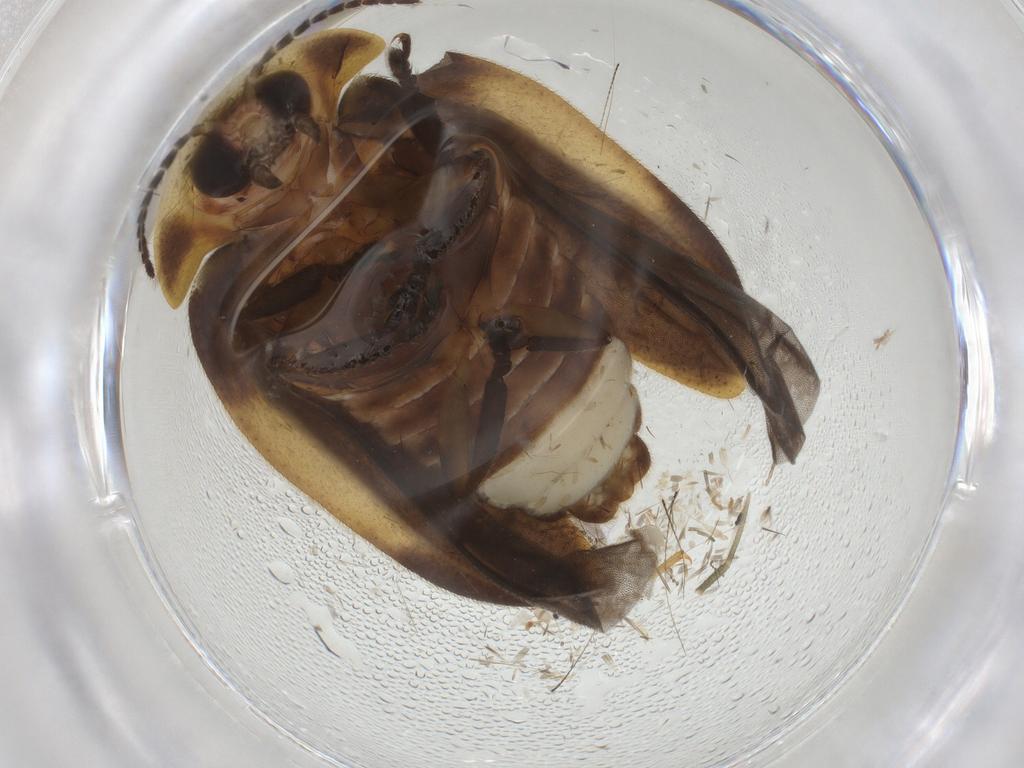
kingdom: Animalia
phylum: Arthropoda
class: Insecta
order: Coleoptera
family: Lampyridae
